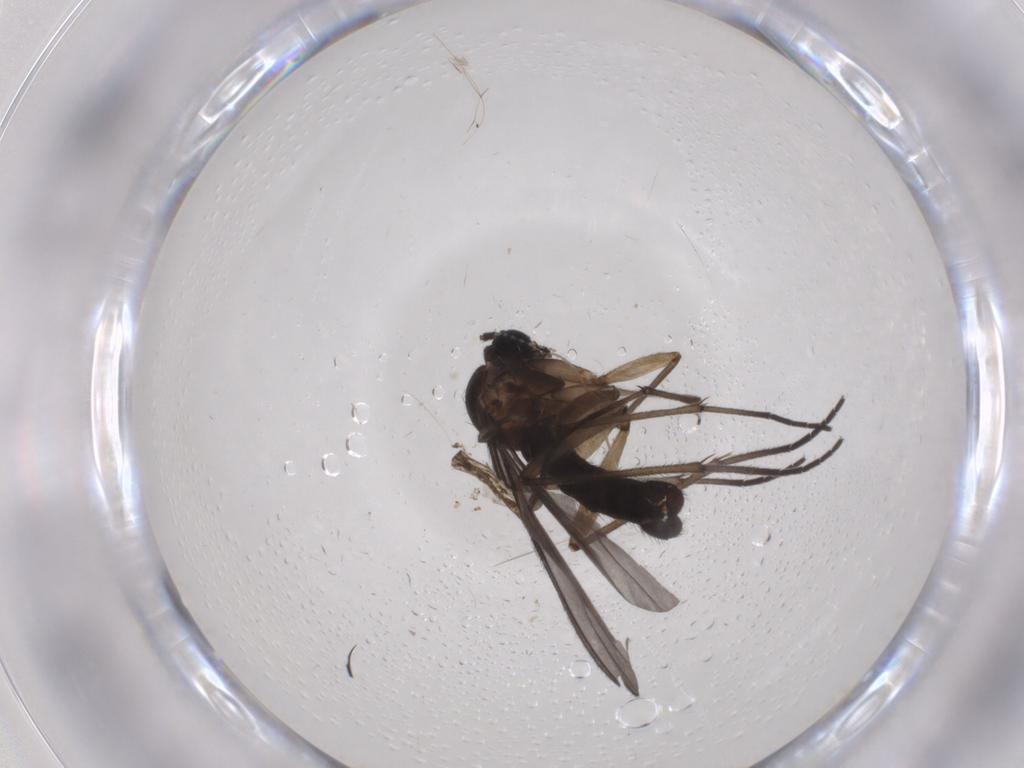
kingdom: Animalia
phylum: Arthropoda
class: Insecta
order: Diptera
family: Sciaridae
